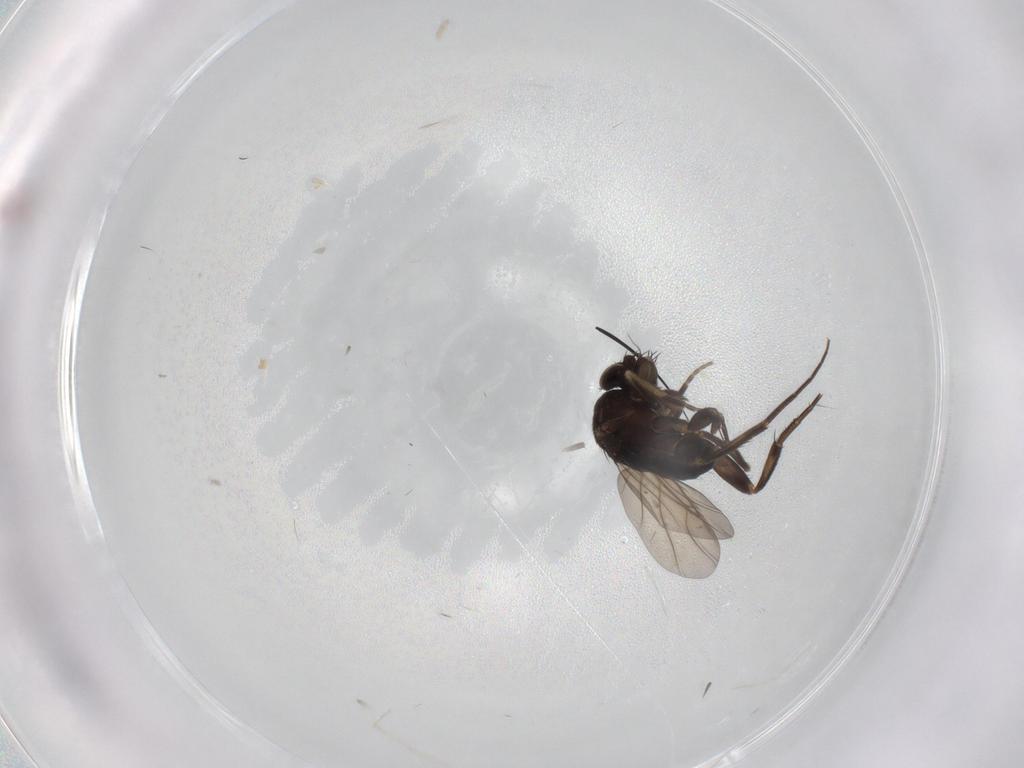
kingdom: Animalia
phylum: Arthropoda
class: Insecta
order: Diptera
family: Phoridae
